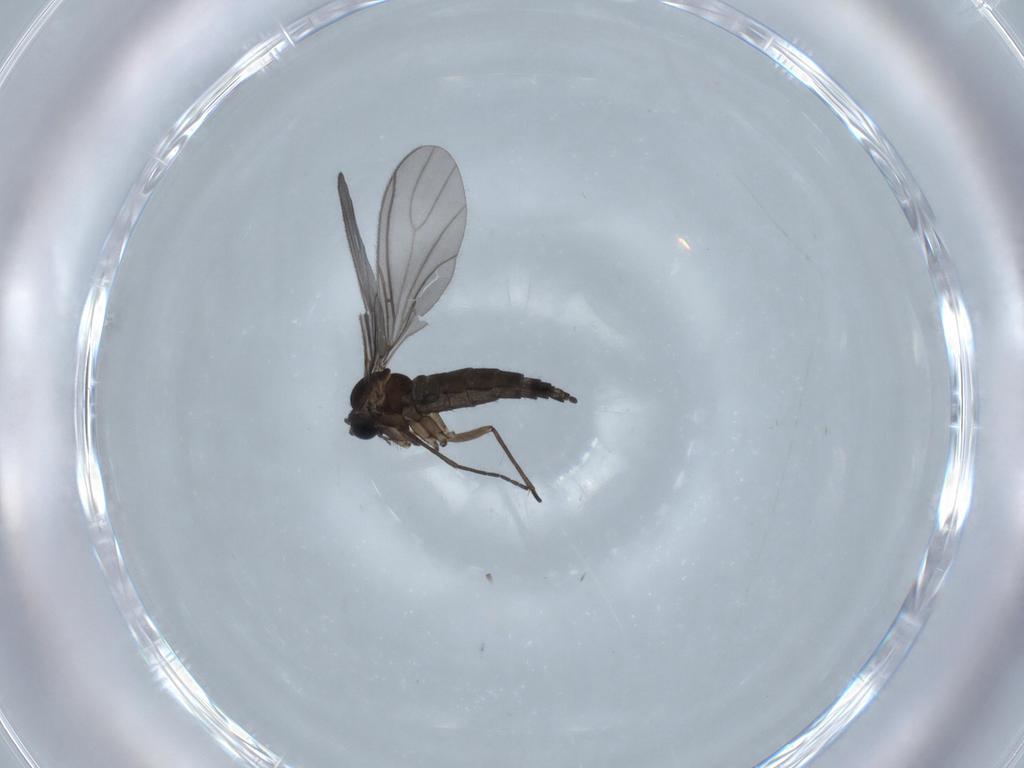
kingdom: Animalia
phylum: Arthropoda
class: Insecta
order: Diptera
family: Sciaridae
